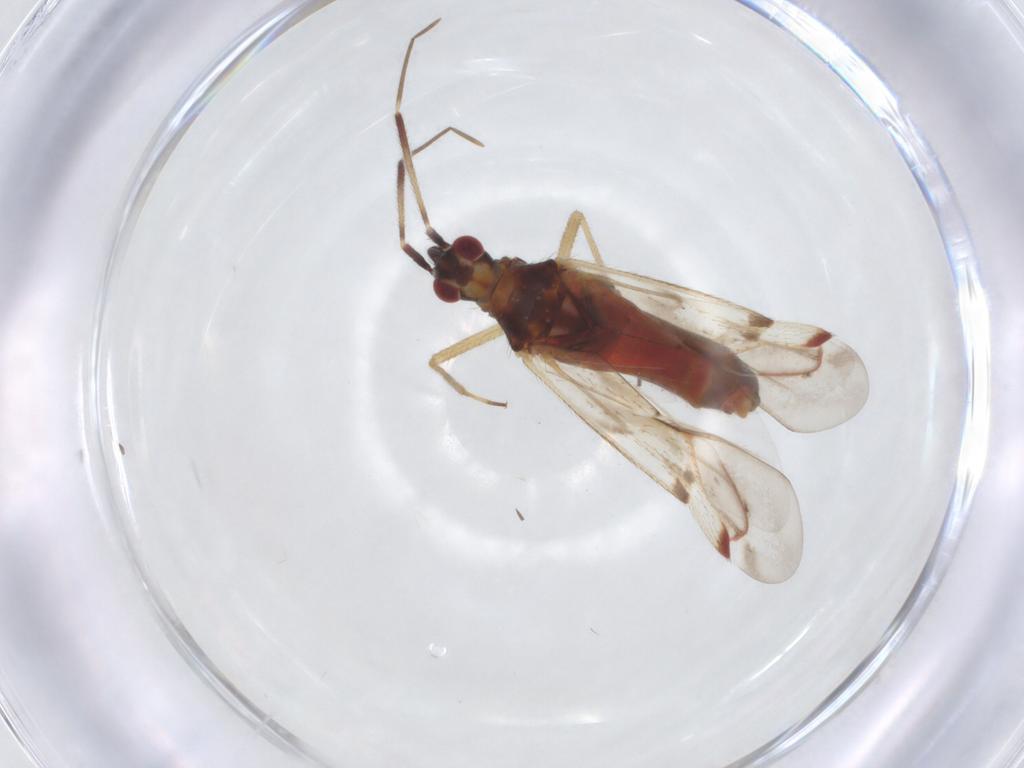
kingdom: Animalia
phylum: Arthropoda
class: Insecta
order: Hemiptera
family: Miridae
